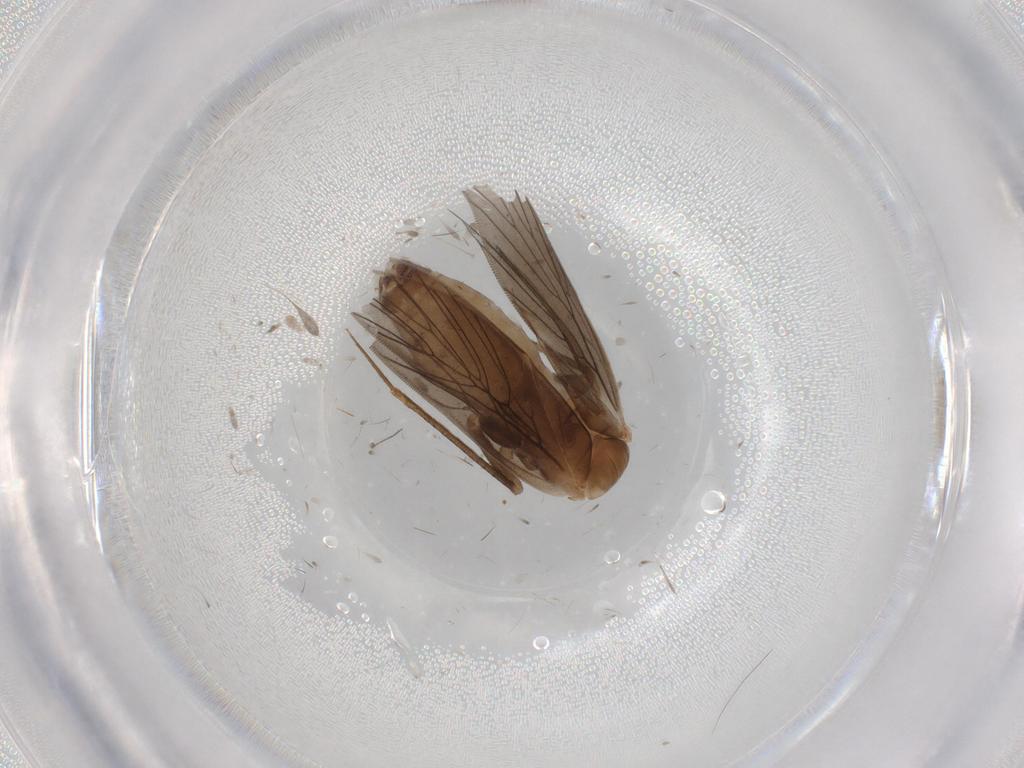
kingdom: Animalia
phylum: Arthropoda
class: Insecta
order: Psocodea
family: Lepidopsocidae
